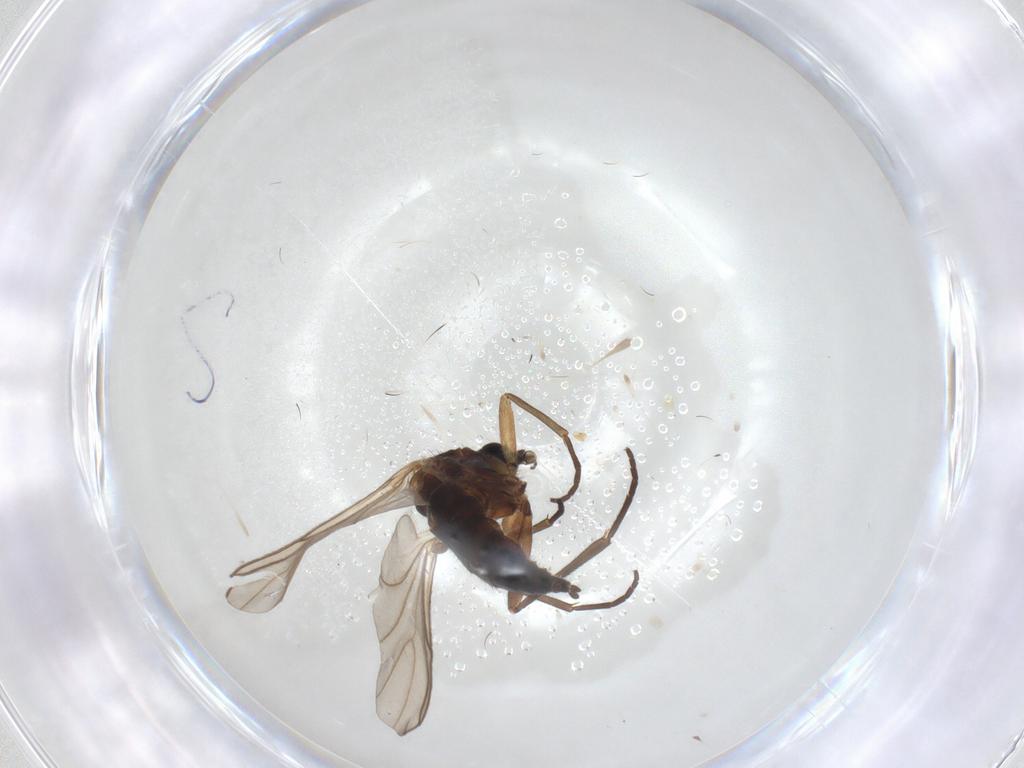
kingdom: Animalia
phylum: Arthropoda
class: Insecta
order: Diptera
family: Sciaridae
